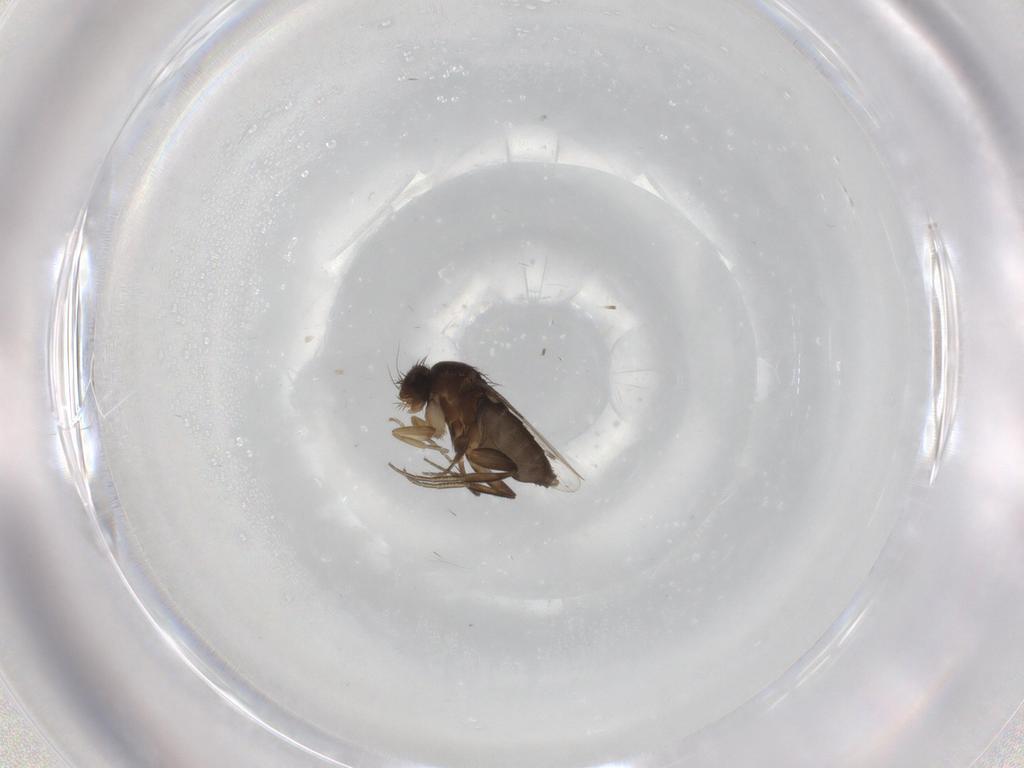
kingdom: Animalia
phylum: Arthropoda
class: Insecta
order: Diptera
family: Phoridae
